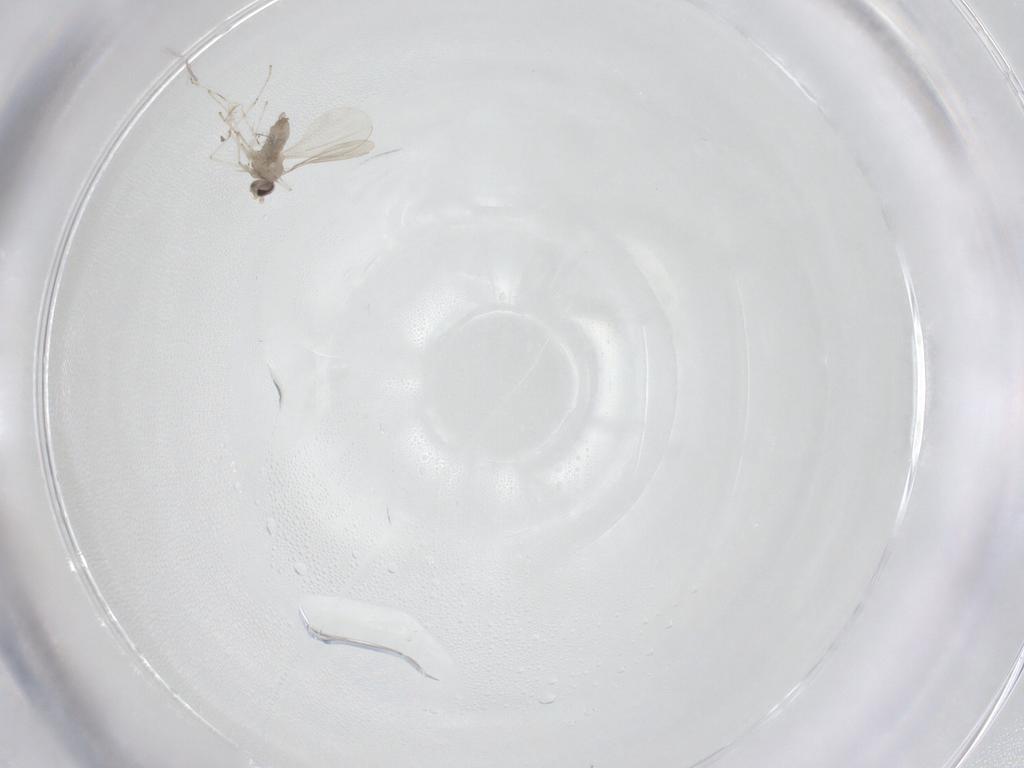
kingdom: Animalia
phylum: Arthropoda
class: Insecta
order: Diptera
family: Cecidomyiidae
